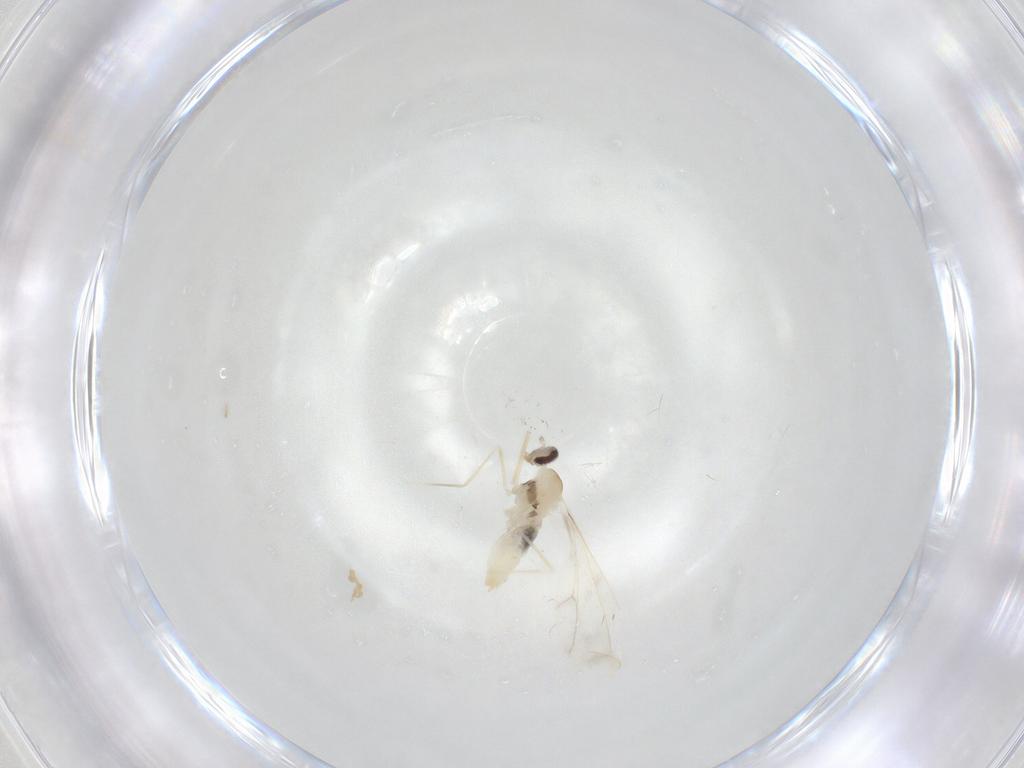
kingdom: Animalia
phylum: Arthropoda
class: Insecta
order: Diptera
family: Cecidomyiidae
